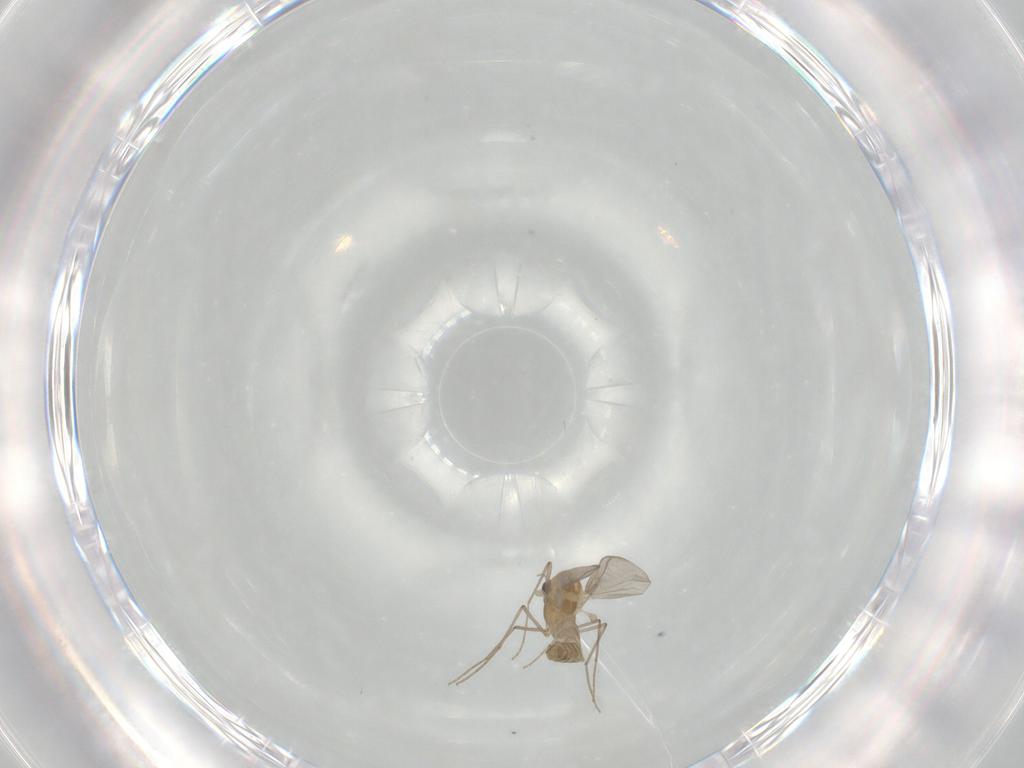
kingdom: Animalia
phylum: Arthropoda
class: Insecta
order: Diptera
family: Chironomidae
